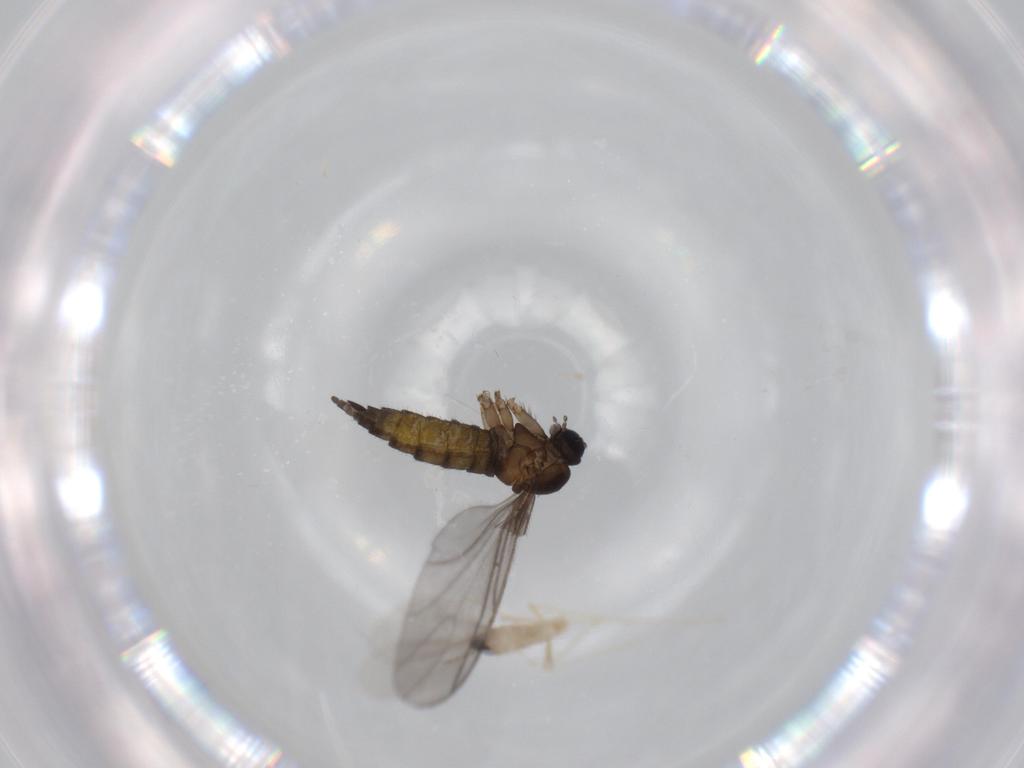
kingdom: Animalia
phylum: Arthropoda
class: Insecta
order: Diptera
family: Cecidomyiidae
